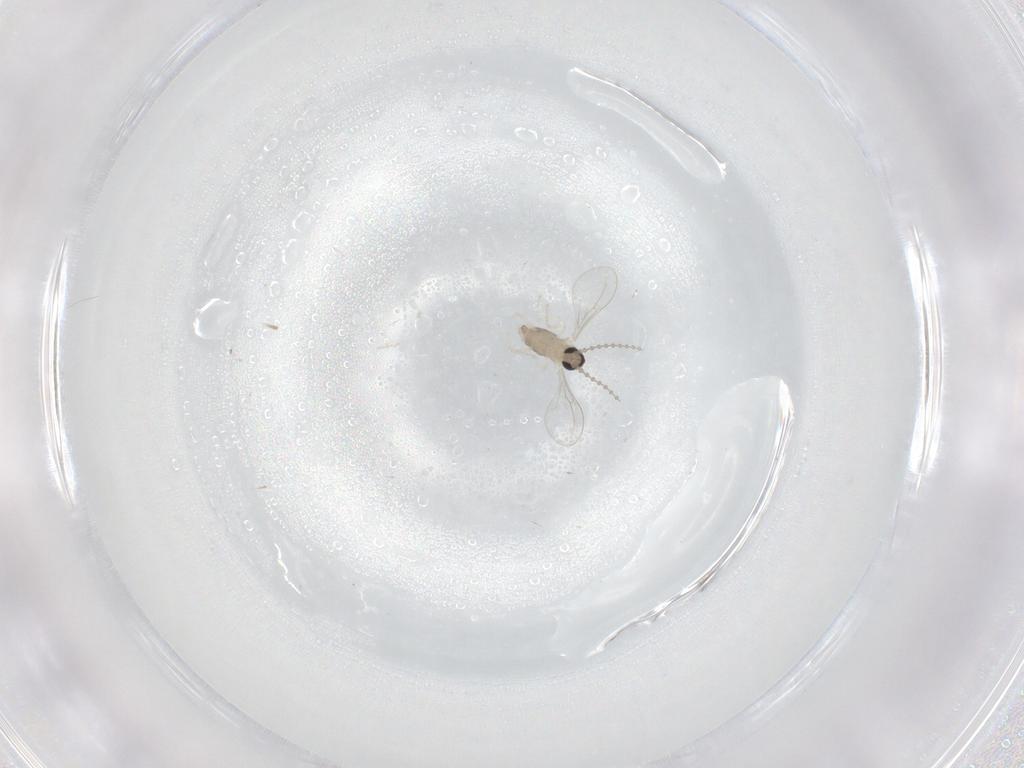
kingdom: Animalia
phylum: Arthropoda
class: Insecta
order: Diptera
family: Cecidomyiidae
